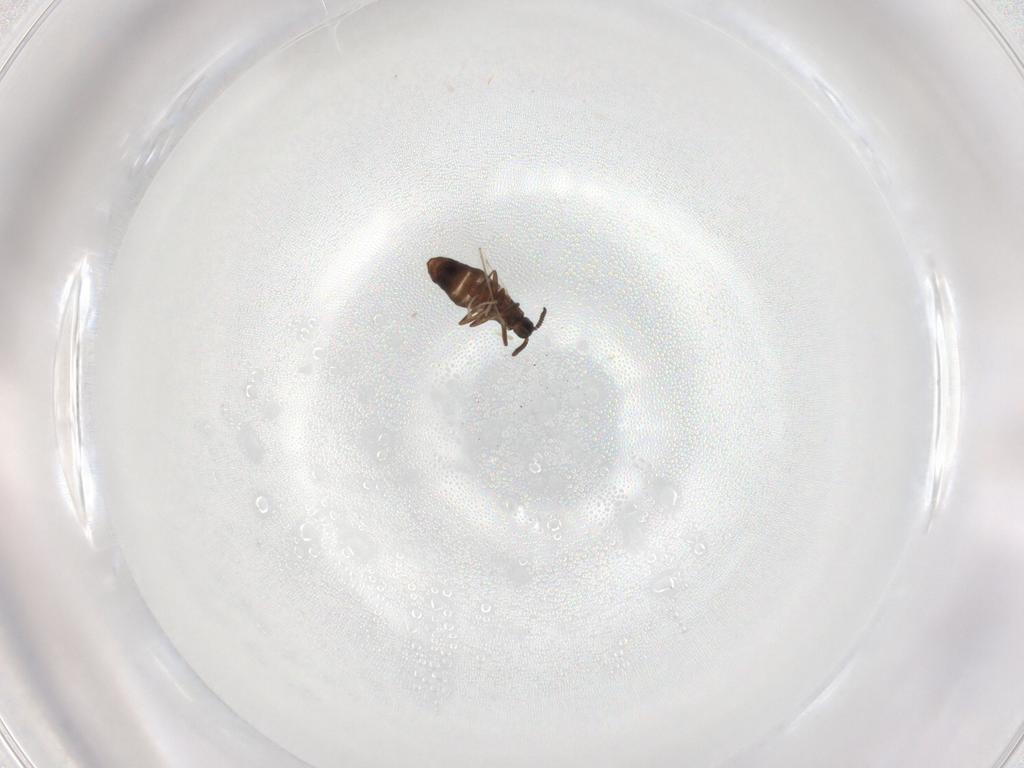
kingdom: Animalia
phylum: Arthropoda
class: Insecta
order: Diptera
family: Scatopsidae
